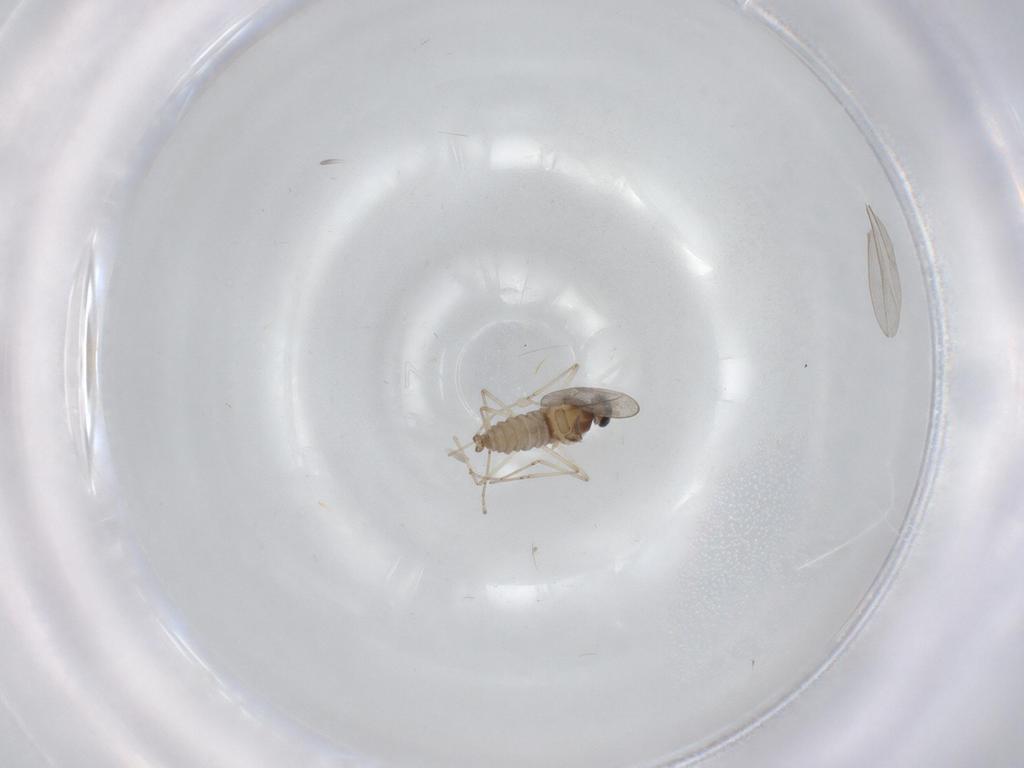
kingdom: Animalia
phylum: Arthropoda
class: Insecta
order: Diptera
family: Cecidomyiidae
